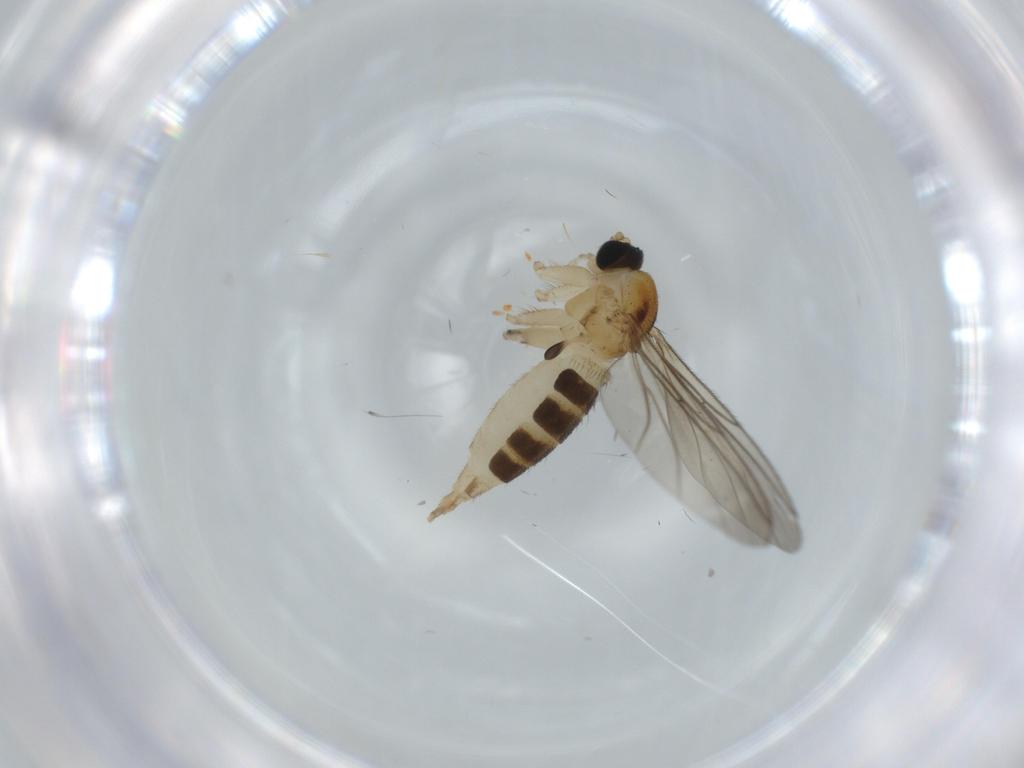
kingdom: Animalia
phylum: Arthropoda
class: Insecta
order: Diptera
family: Sciaridae
